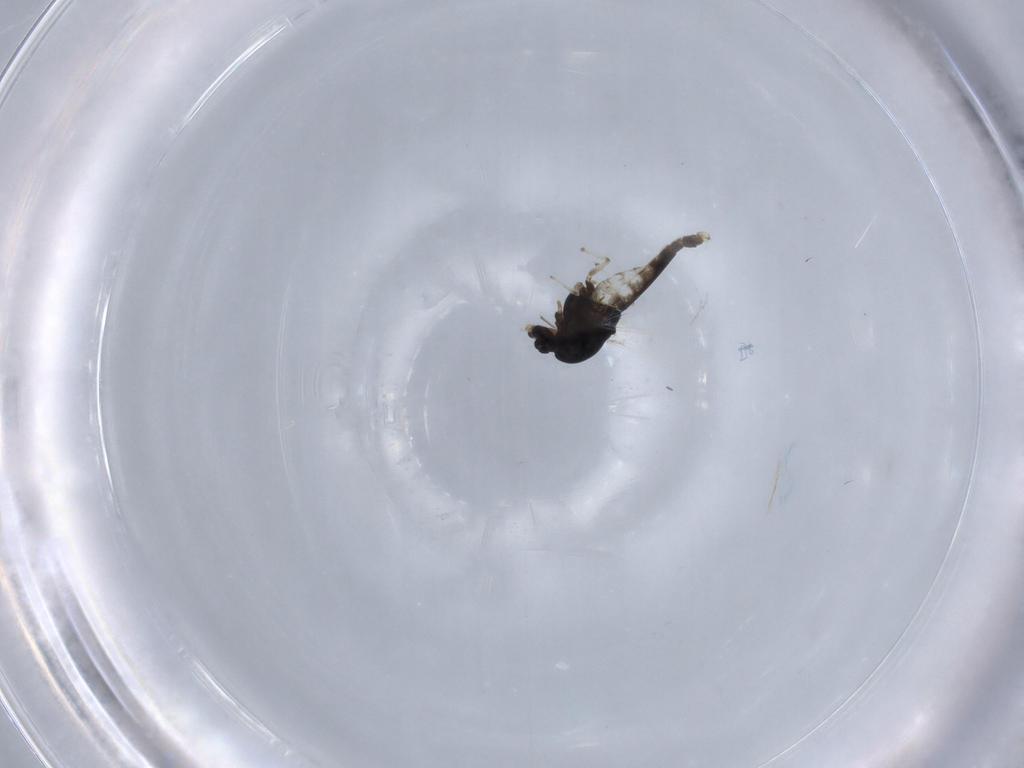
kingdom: Animalia
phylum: Arthropoda
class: Insecta
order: Diptera
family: Chironomidae
